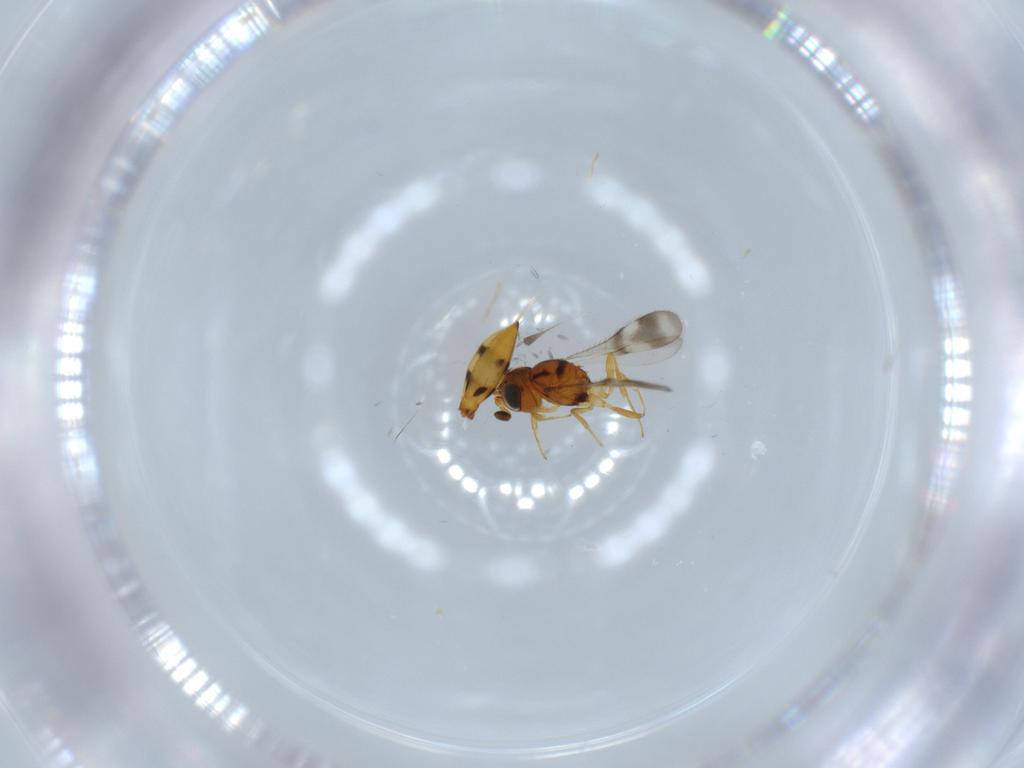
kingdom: Animalia
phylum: Arthropoda
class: Insecta
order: Hymenoptera
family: Scelionidae
